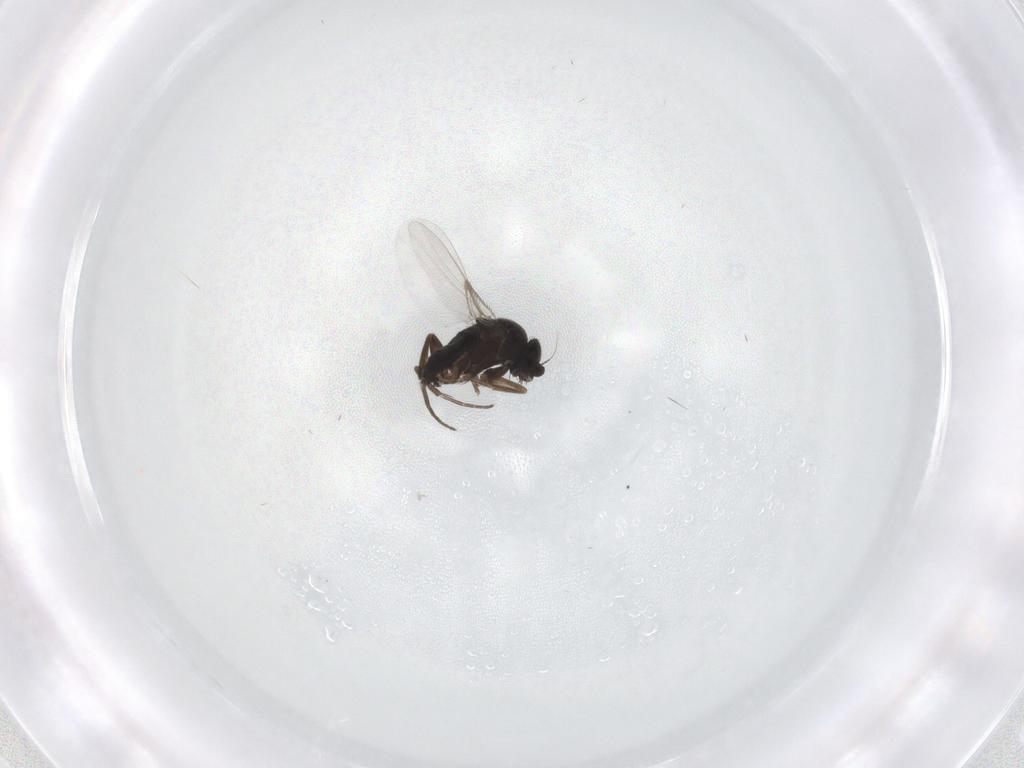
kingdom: Animalia
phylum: Arthropoda
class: Insecta
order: Diptera
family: Phoridae
